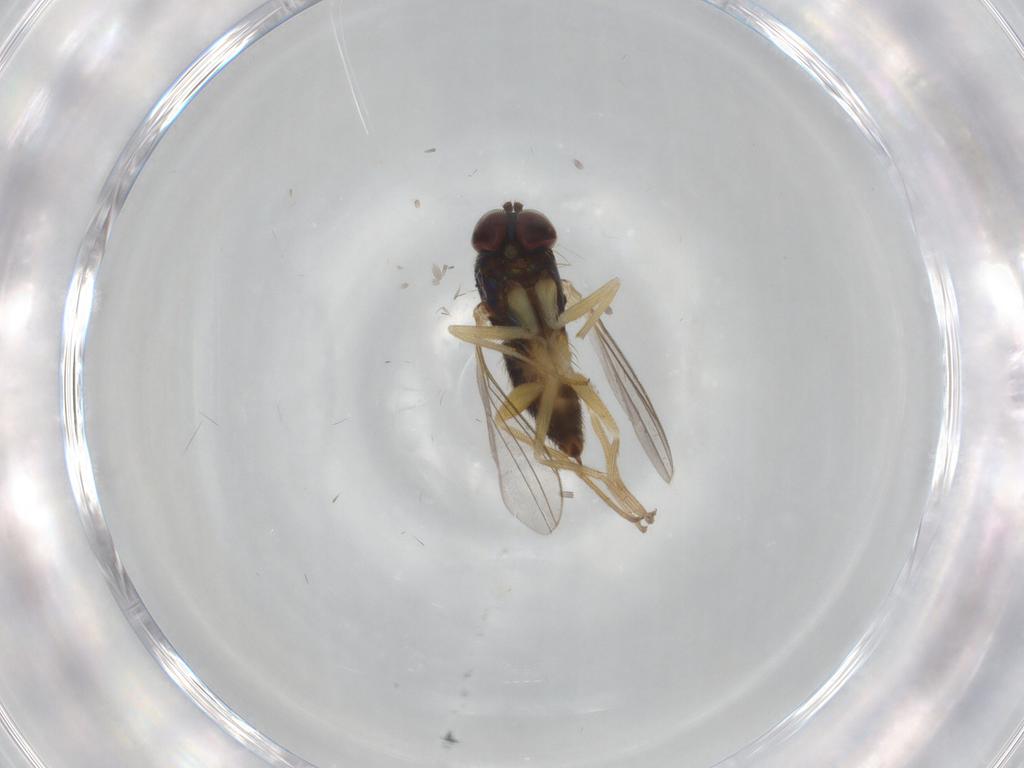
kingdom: Animalia
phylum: Arthropoda
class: Insecta
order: Diptera
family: Dolichopodidae
